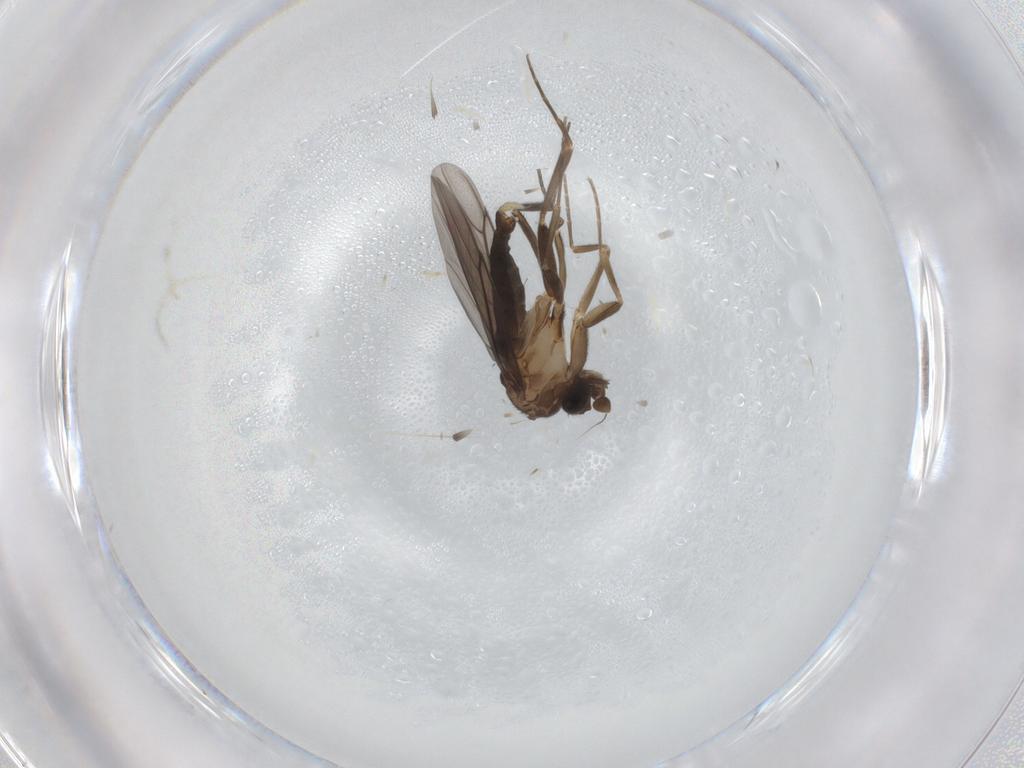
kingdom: Animalia
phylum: Arthropoda
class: Insecta
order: Diptera
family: Phoridae
